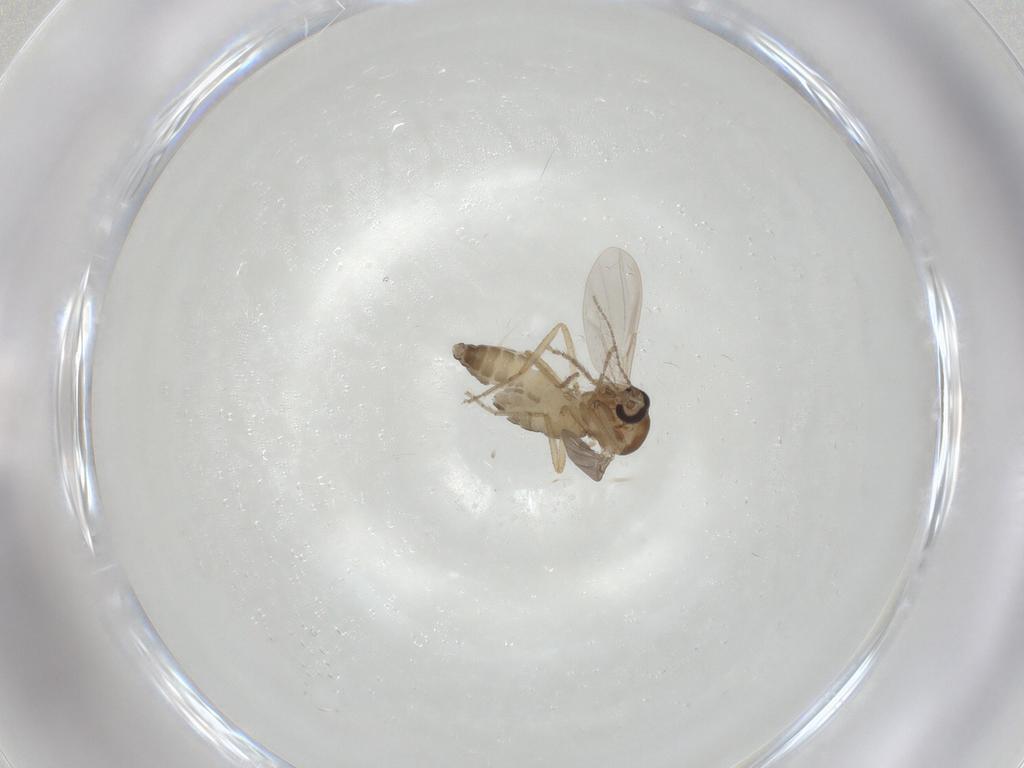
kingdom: Animalia
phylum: Arthropoda
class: Insecta
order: Diptera
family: Ceratopogonidae
